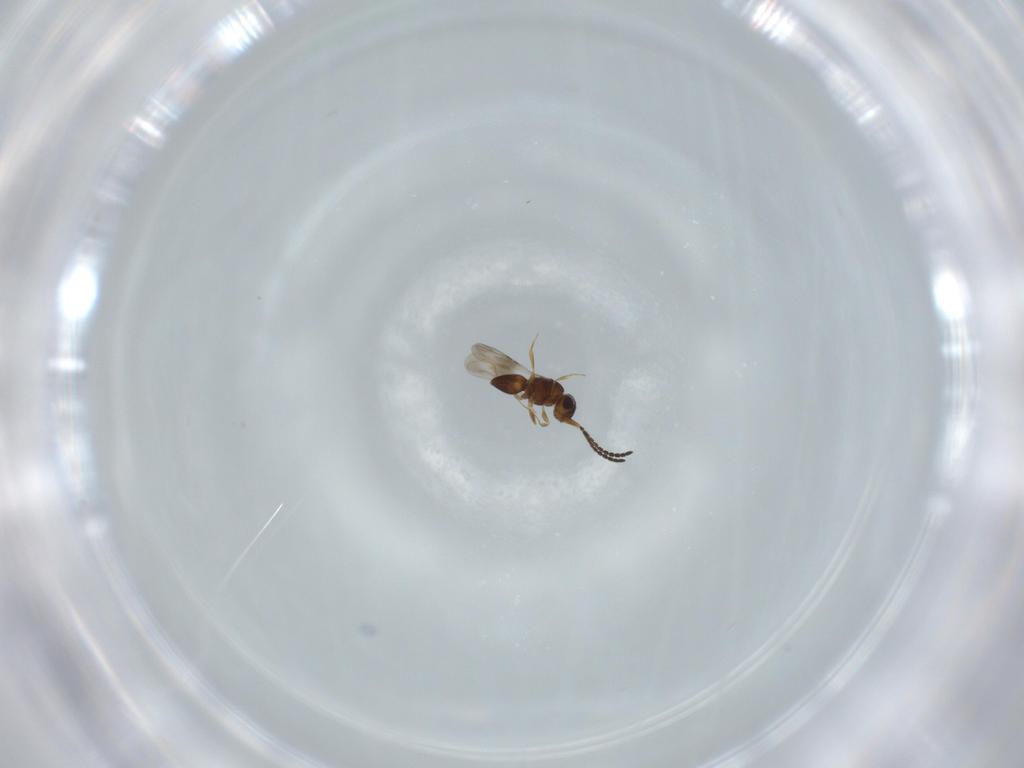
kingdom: Animalia
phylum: Arthropoda
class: Insecta
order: Hymenoptera
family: Ceraphronidae
